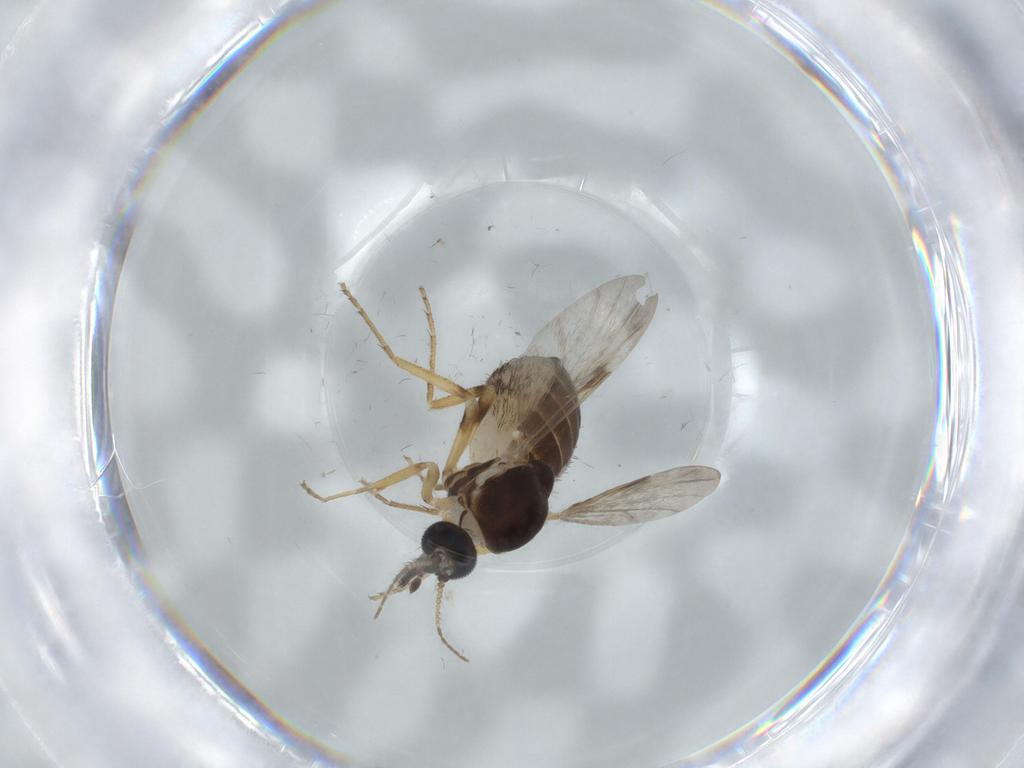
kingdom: Animalia
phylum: Arthropoda
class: Insecta
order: Diptera
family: Ceratopogonidae
